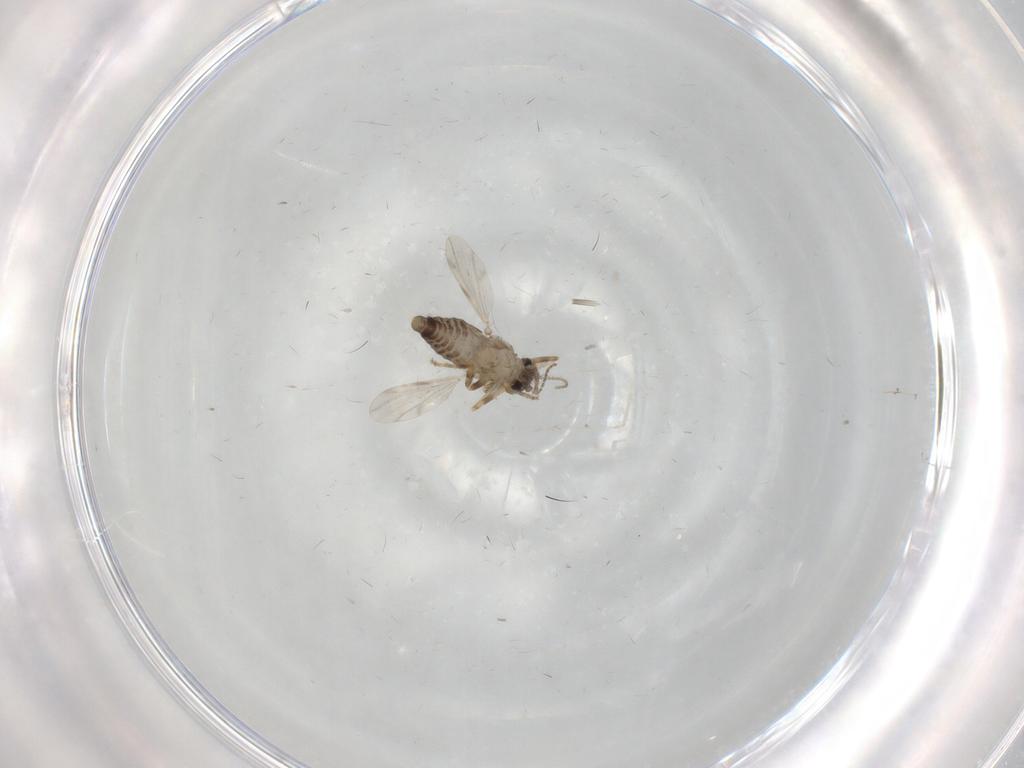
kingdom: Animalia
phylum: Arthropoda
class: Insecta
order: Diptera
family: Ceratopogonidae
